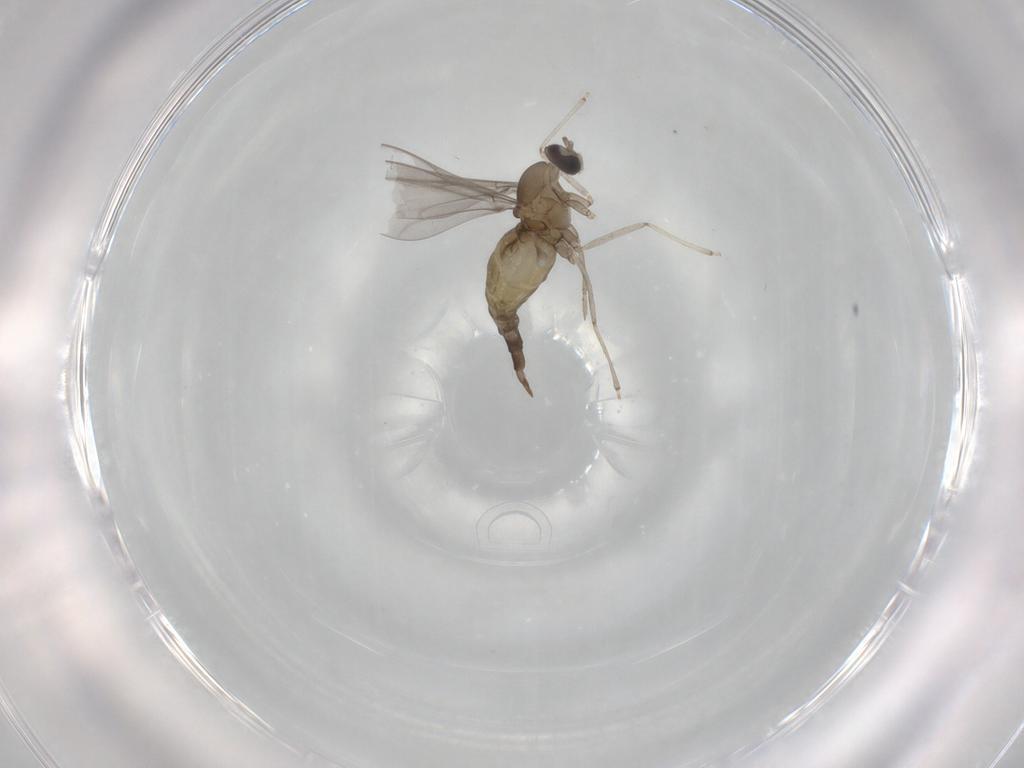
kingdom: Animalia
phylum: Arthropoda
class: Insecta
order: Diptera
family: Cecidomyiidae
